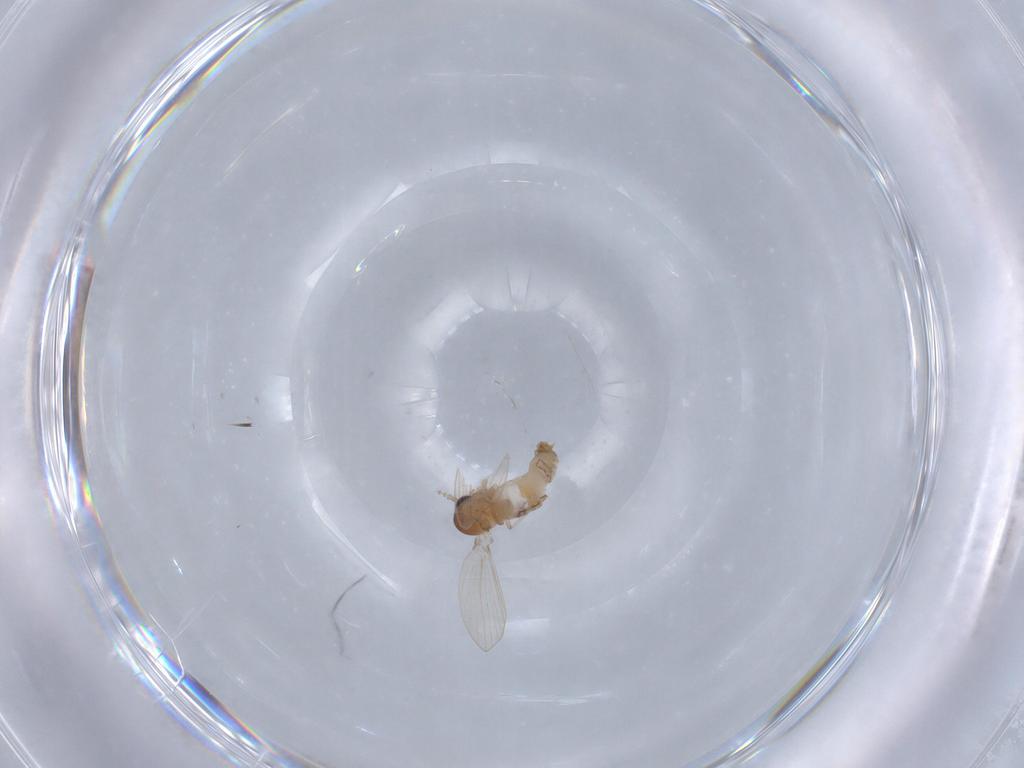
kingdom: Animalia
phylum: Arthropoda
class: Insecta
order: Diptera
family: Psychodidae
